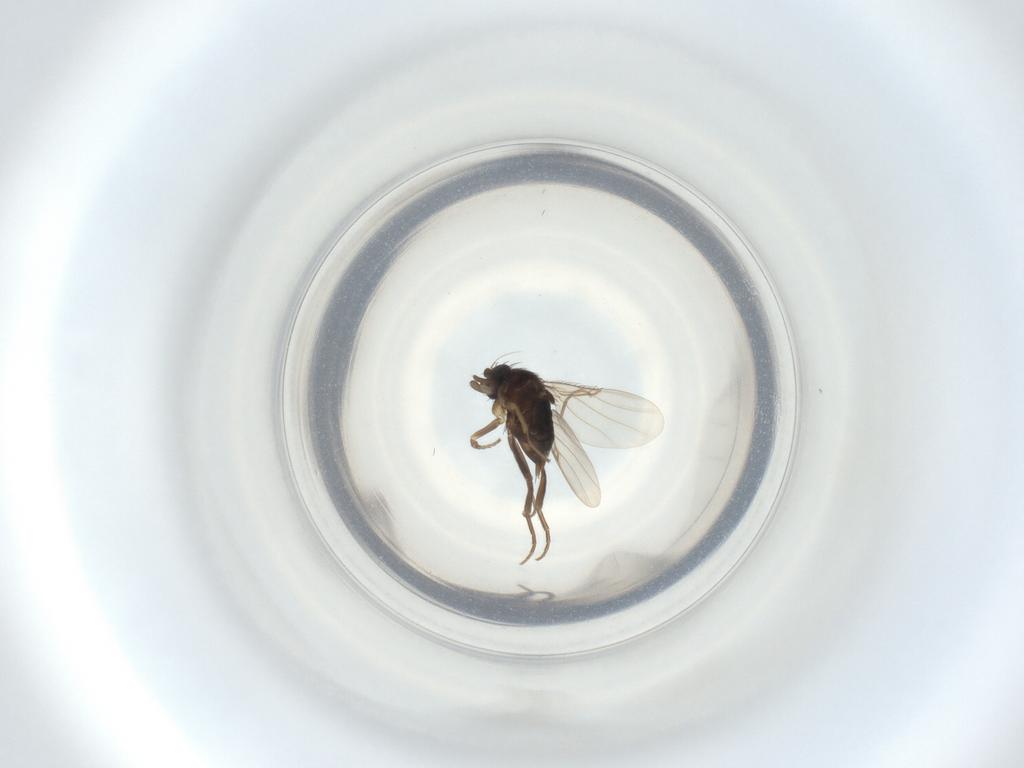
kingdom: Animalia
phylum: Arthropoda
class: Insecta
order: Diptera
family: Phoridae
